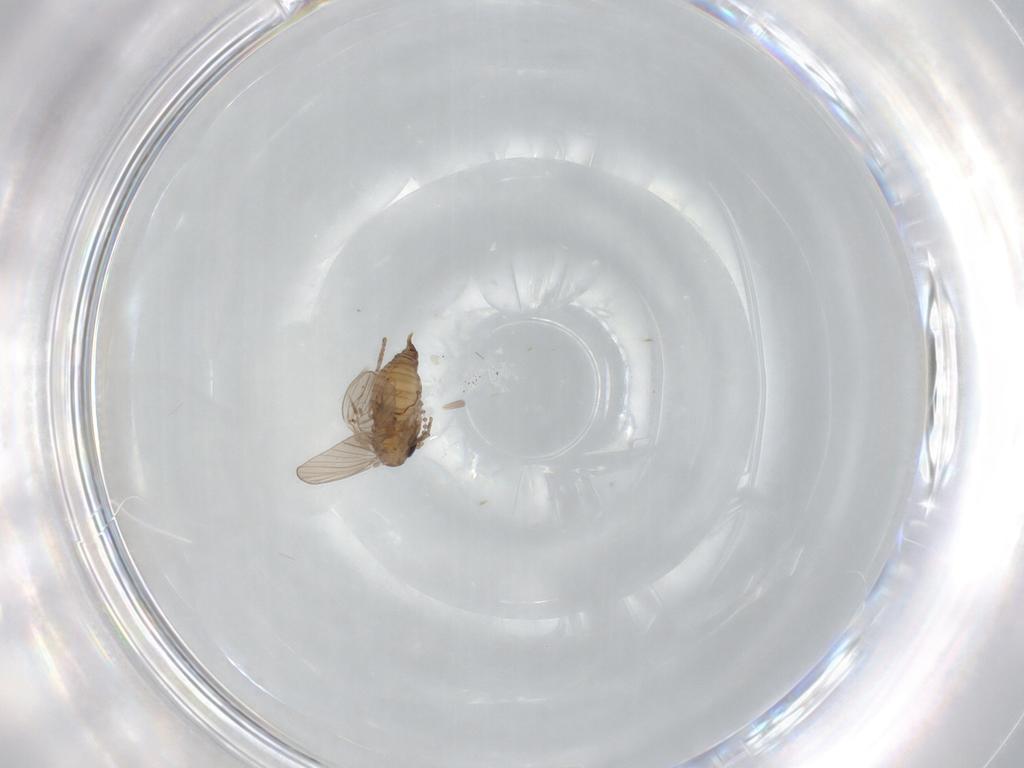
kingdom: Animalia
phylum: Arthropoda
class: Insecta
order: Diptera
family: Psychodidae
